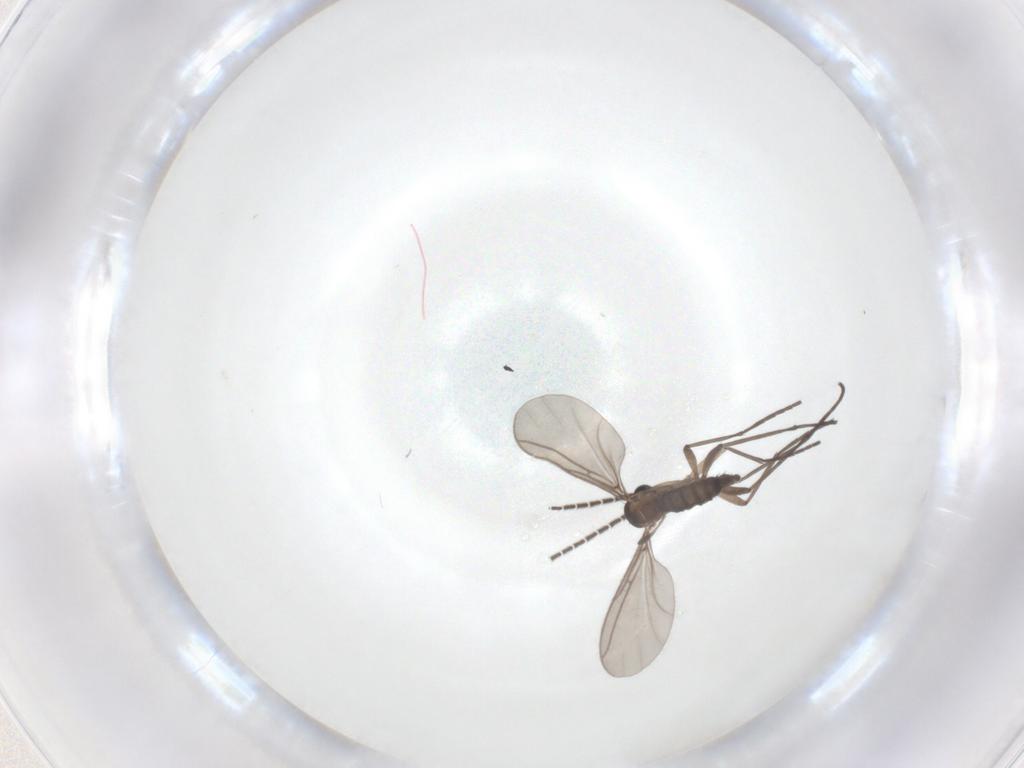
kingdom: Animalia
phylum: Arthropoda
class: Insecta
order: Diptera
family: Sciaridae
